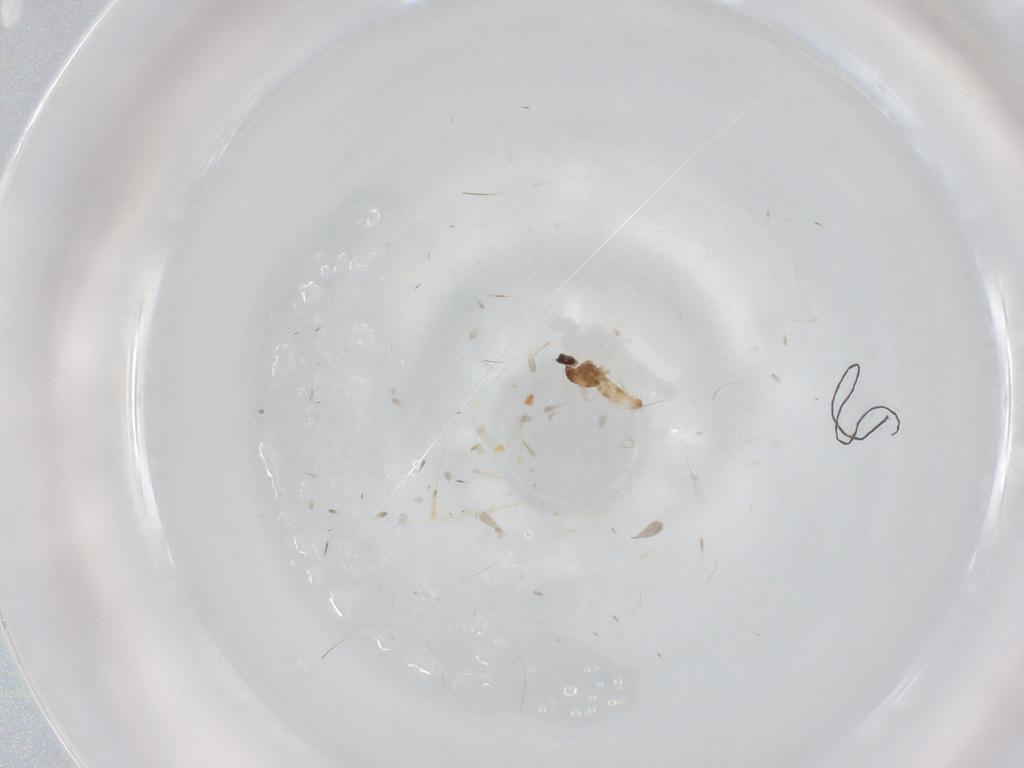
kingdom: Animalia
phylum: Arthropoda
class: Insecta
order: Diptera
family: Cecidomyiidae
